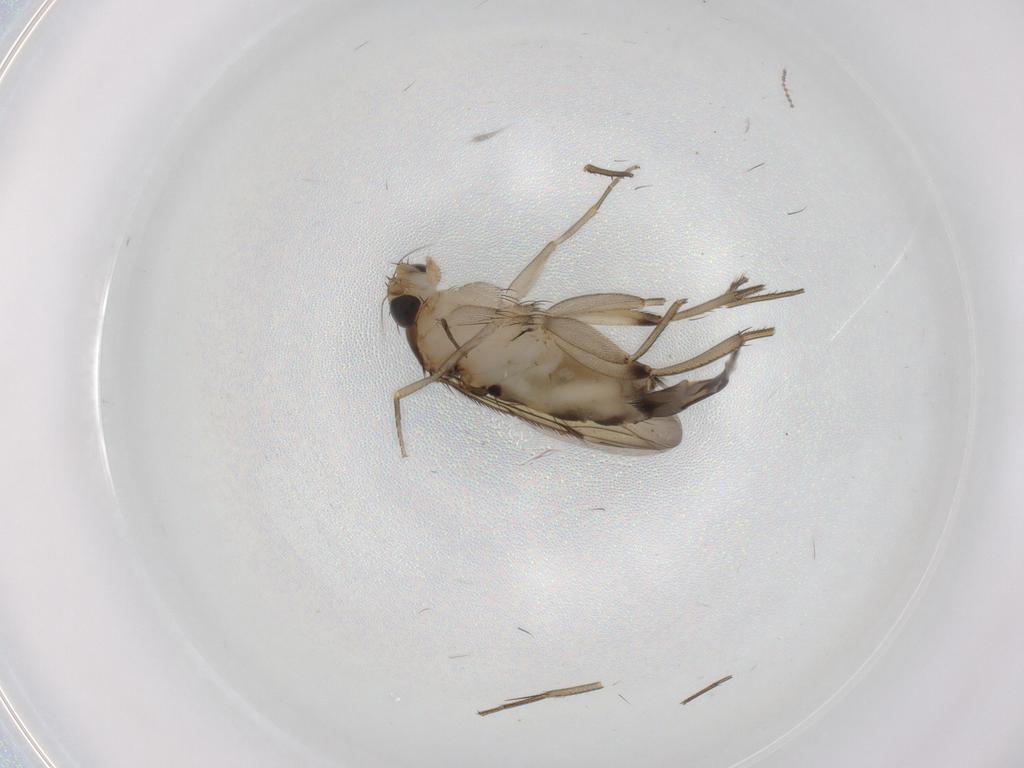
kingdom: Animalia
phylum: Arthropoda
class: Insecta
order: Diptera
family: Phoridae
